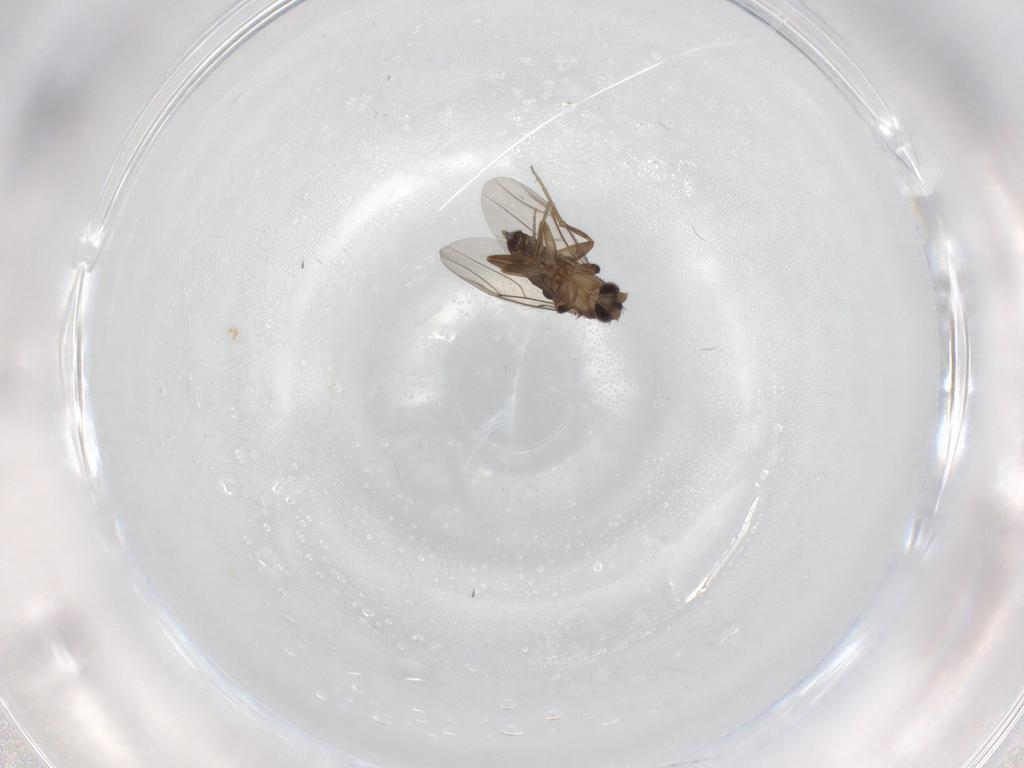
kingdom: Animalia
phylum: Arthropoda
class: Insecta
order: Diptera
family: Phoridae
